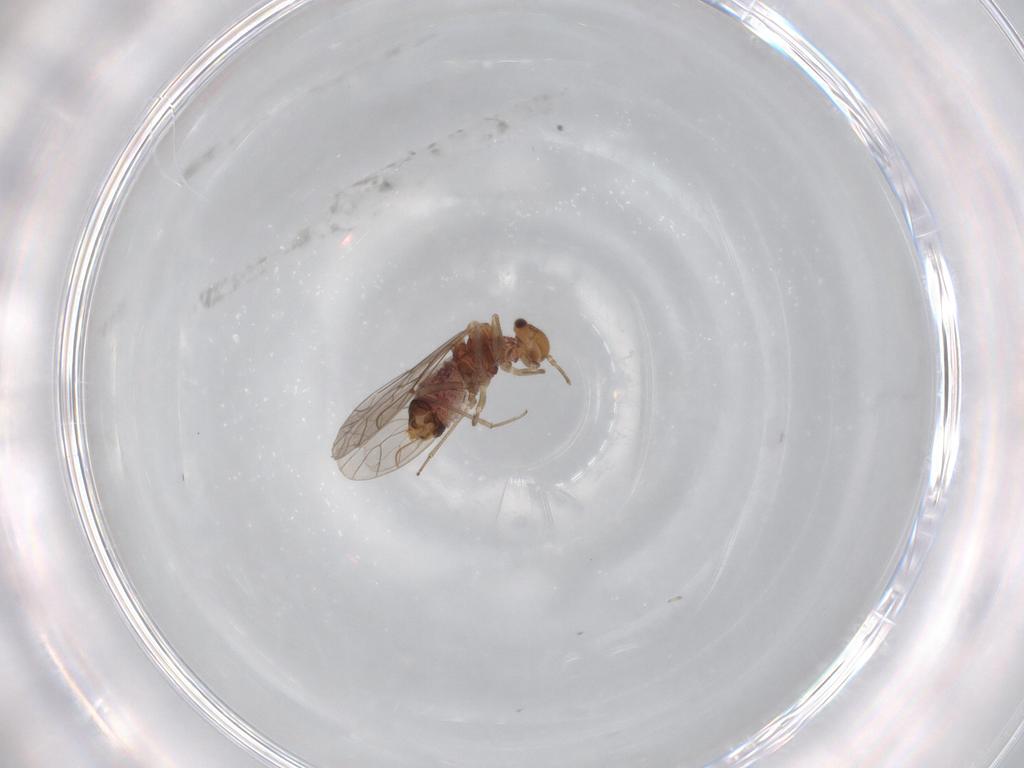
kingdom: Animalia
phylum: Arthropoda
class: Insecta
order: Psocodea
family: Lachesillidae
